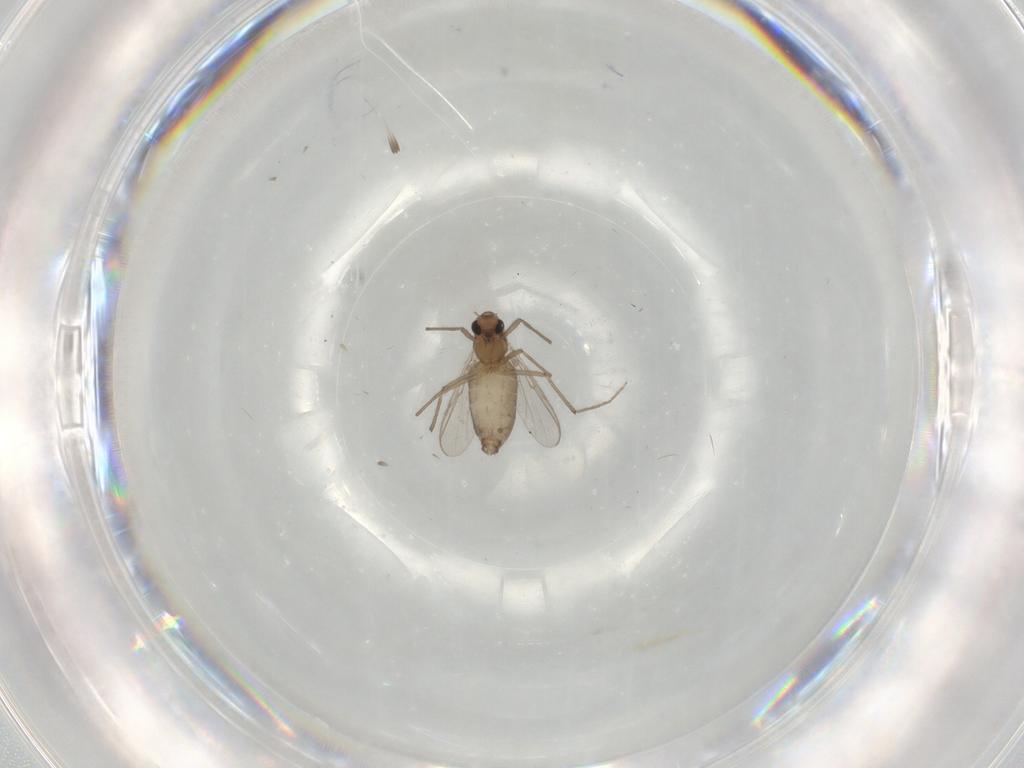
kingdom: Animalia
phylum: Arthropoda
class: Insecta
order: Diptera
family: Chironomidae
